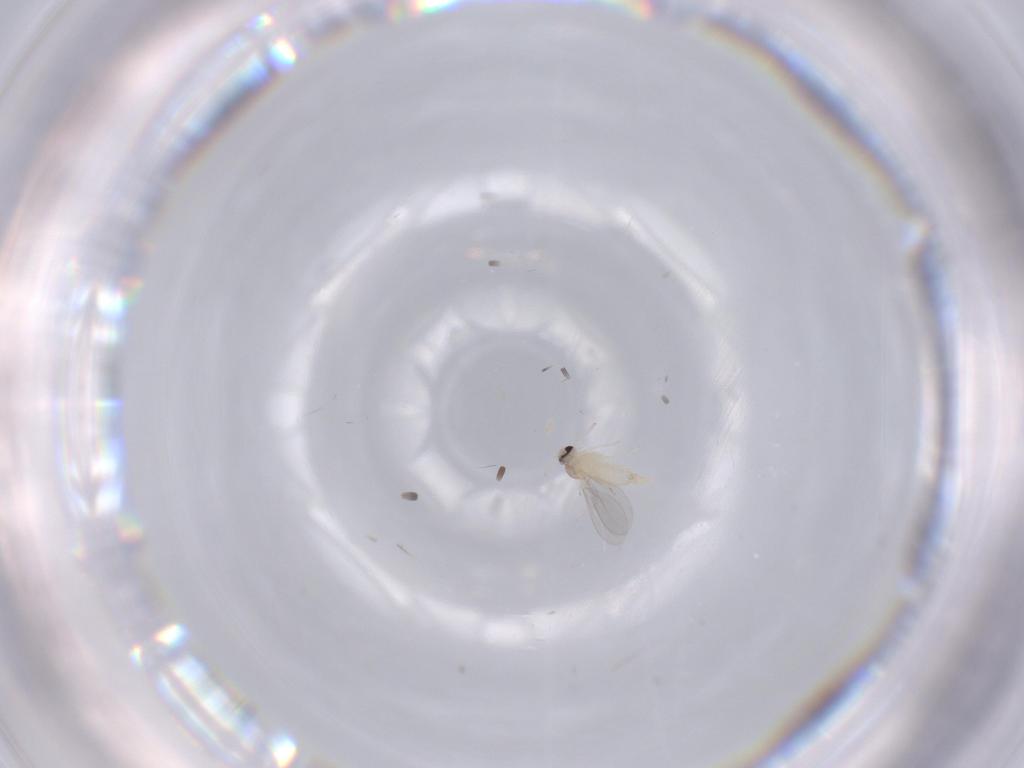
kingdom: Animalia
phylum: Arthropoda
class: Insecta
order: Diptera
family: Cecidomyiidae
